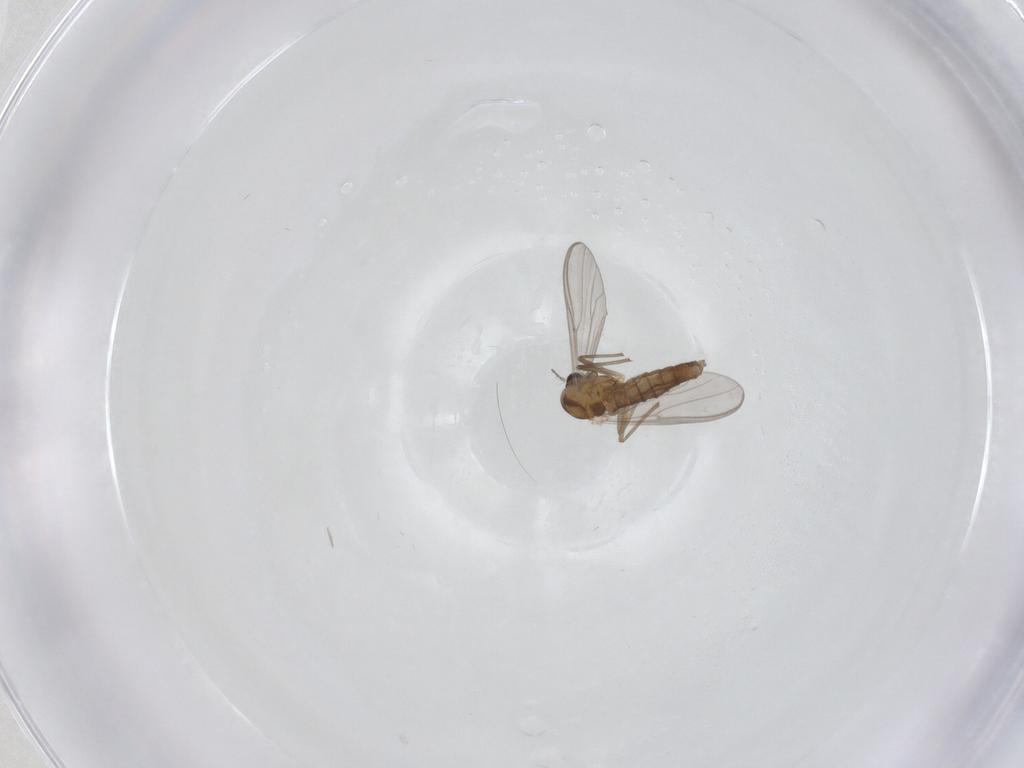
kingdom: Animalia
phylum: Arthropoda
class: Insecta
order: Diptera
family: Chironomidae
